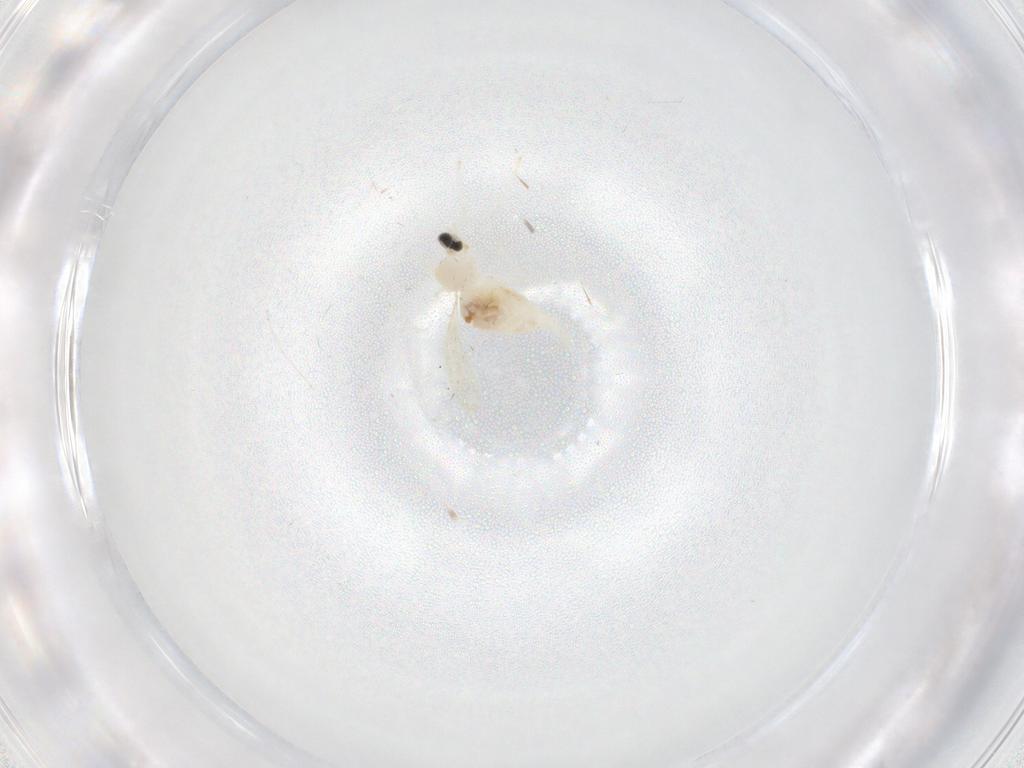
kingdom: Animalia
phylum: Arthropoda
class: Insecta
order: Diptera
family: Cecidomyiidae
